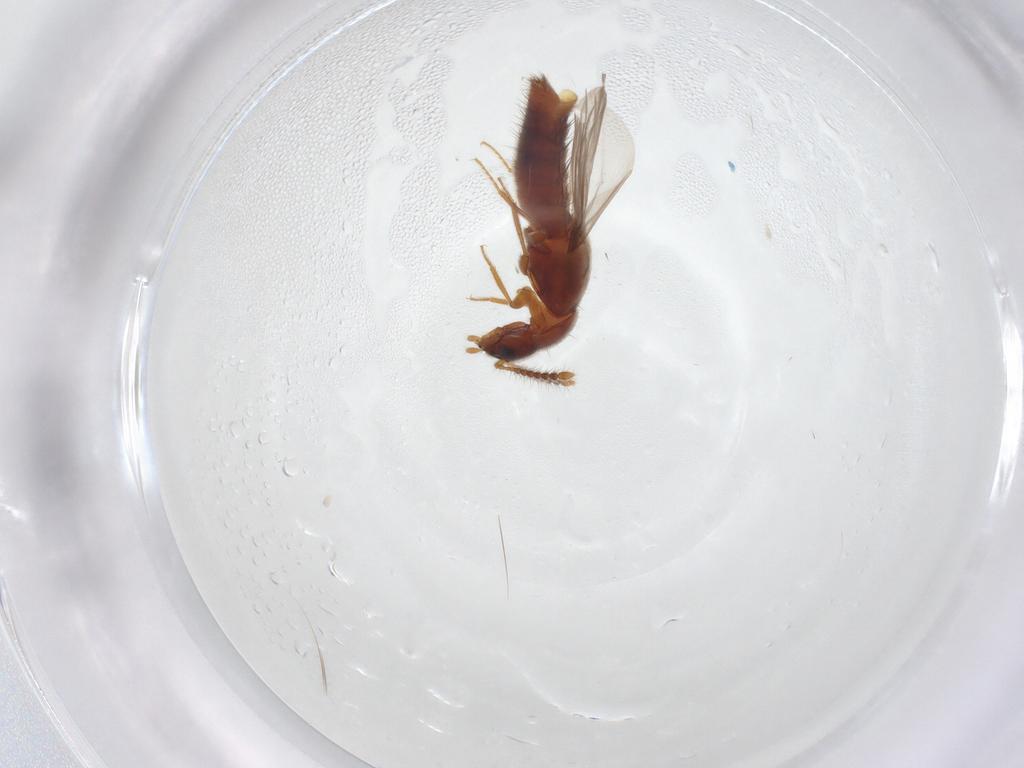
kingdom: Animalia
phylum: Arthropoda
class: Insecta
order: Coleoptera
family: Staphylinidae
